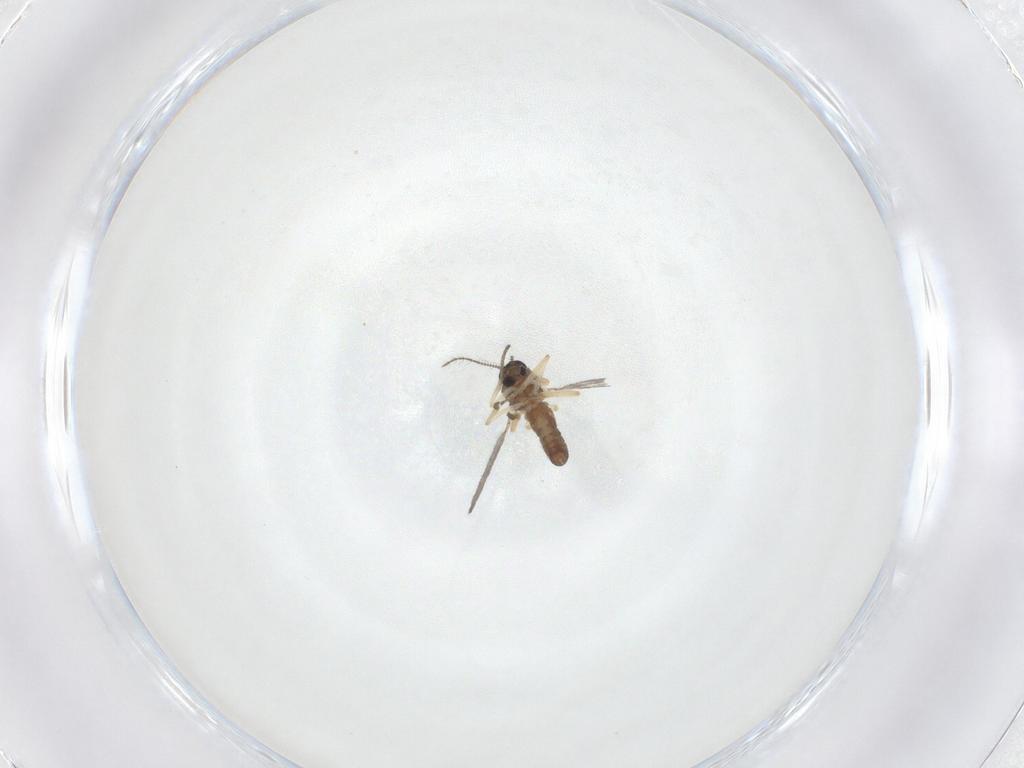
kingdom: Animalia
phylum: Arthropoda
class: Insecta
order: Diptera
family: Ceratopogonidae
